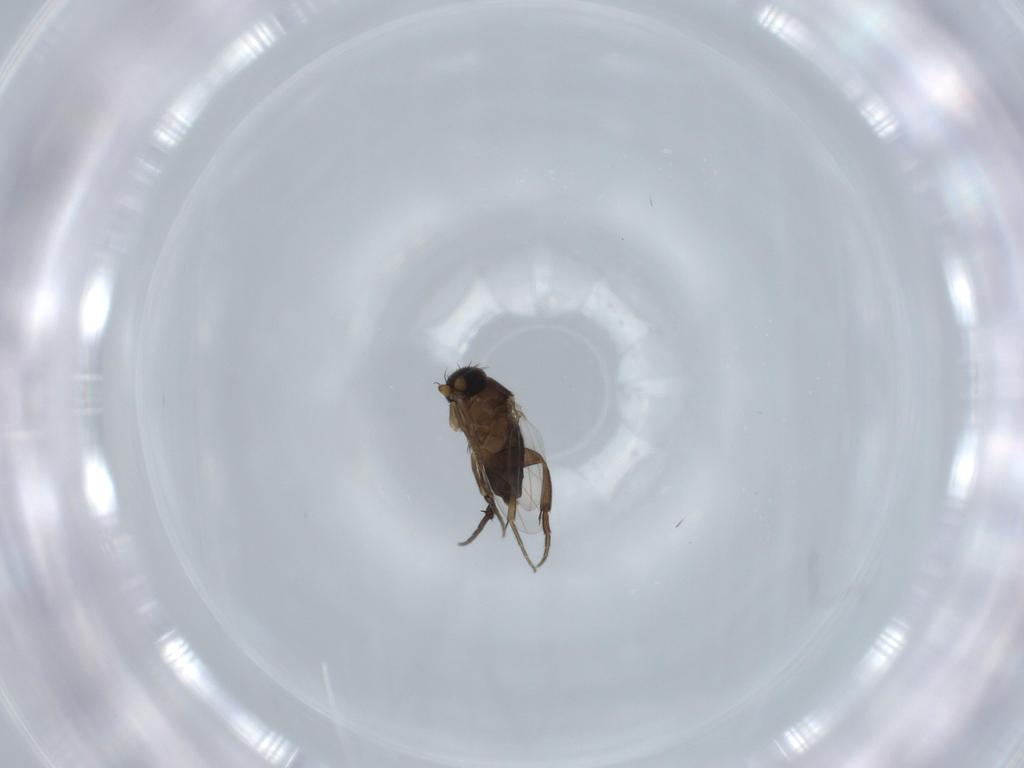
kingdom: Animalia
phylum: Arthropoda
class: Insecta
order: Diptera
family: Phoridae
